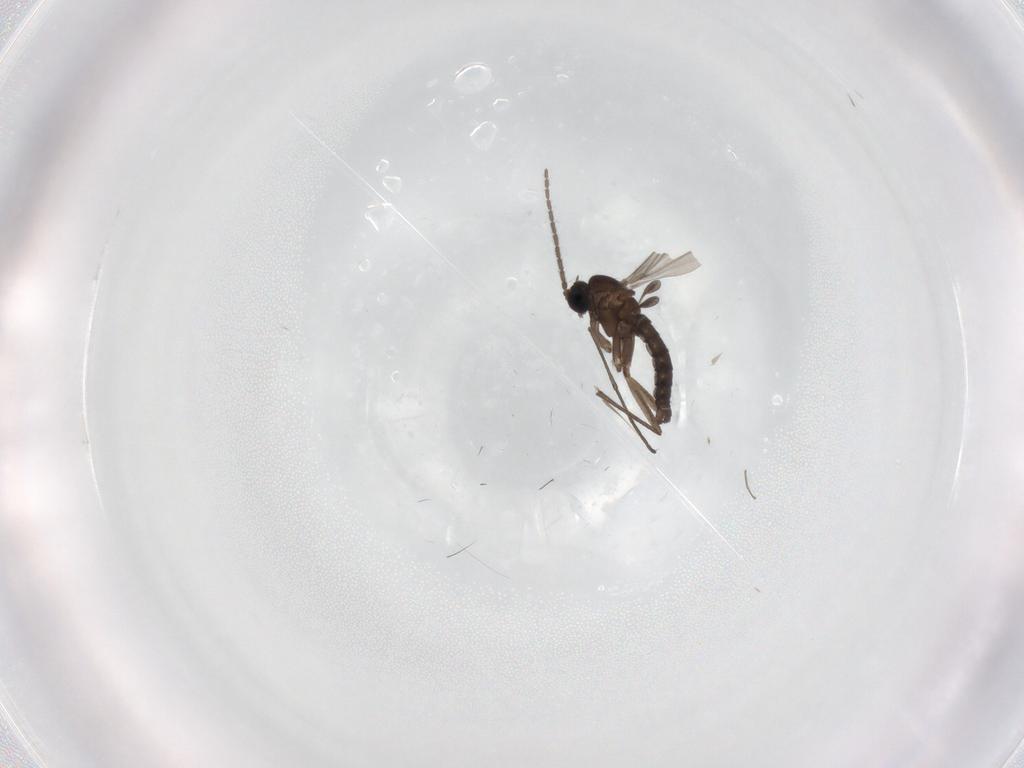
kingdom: Animalia
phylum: Arthropoda
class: Insecta
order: Diptera
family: Sciaridae
